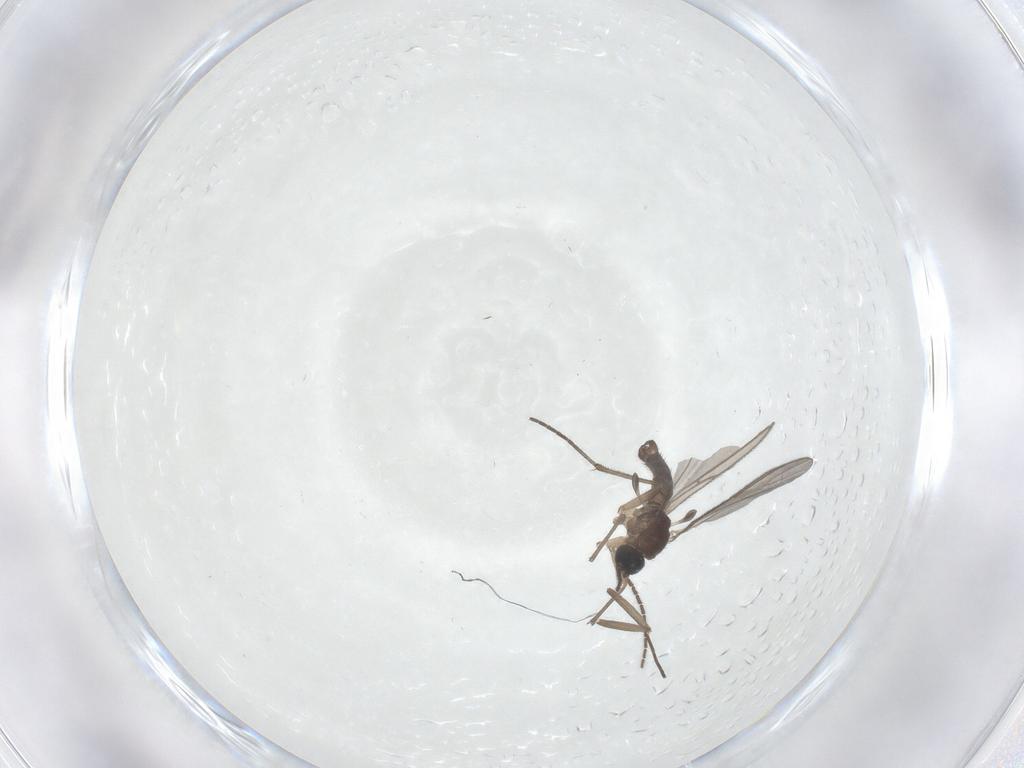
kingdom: Animalia
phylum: Arthropoda
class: Insecta
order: Diptera
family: Sciaridae
